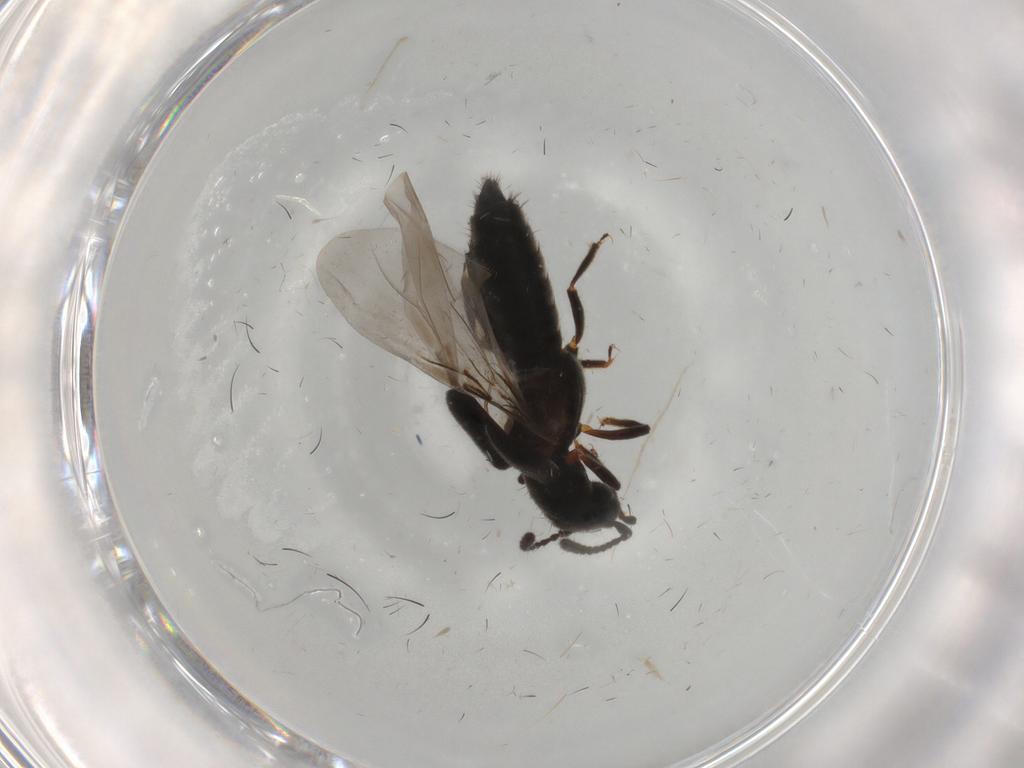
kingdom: Animalia
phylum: Arthropoda
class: Insecta
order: Coleoptera
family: Staphylinidae
